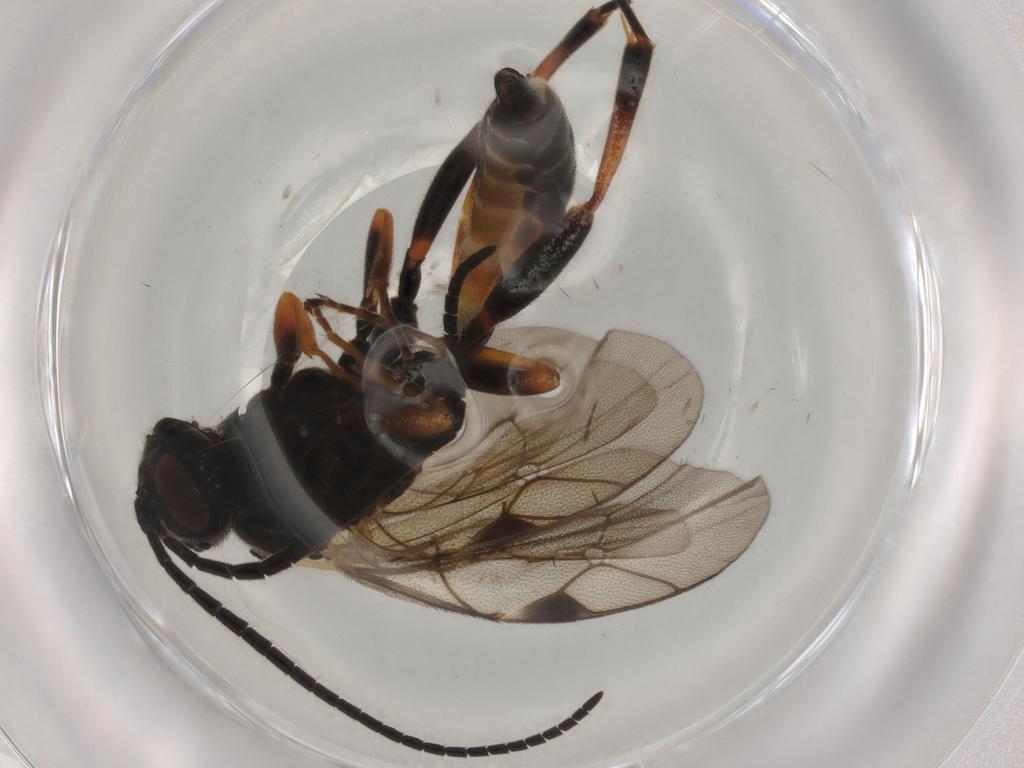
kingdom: Animalia
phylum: Arthropoda
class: Insecta
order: Hymenoptera
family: Ichneumonidae
